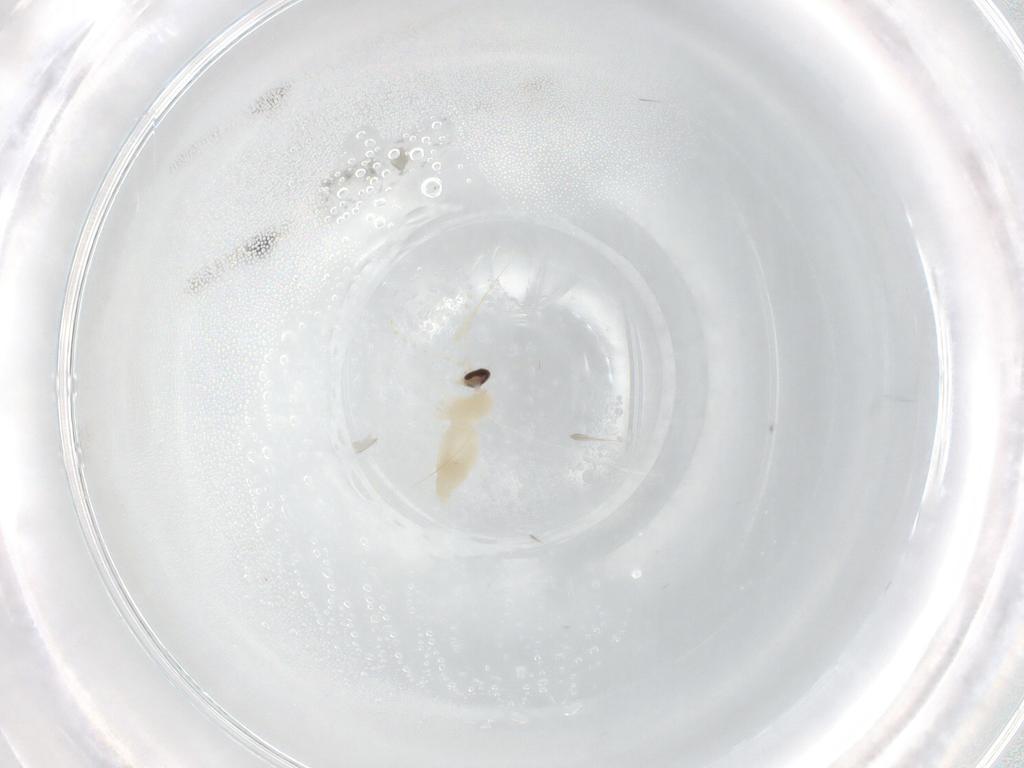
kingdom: Animalia
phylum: Arthropoda
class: Insecta
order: Diptera
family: Cecidomyiidae
